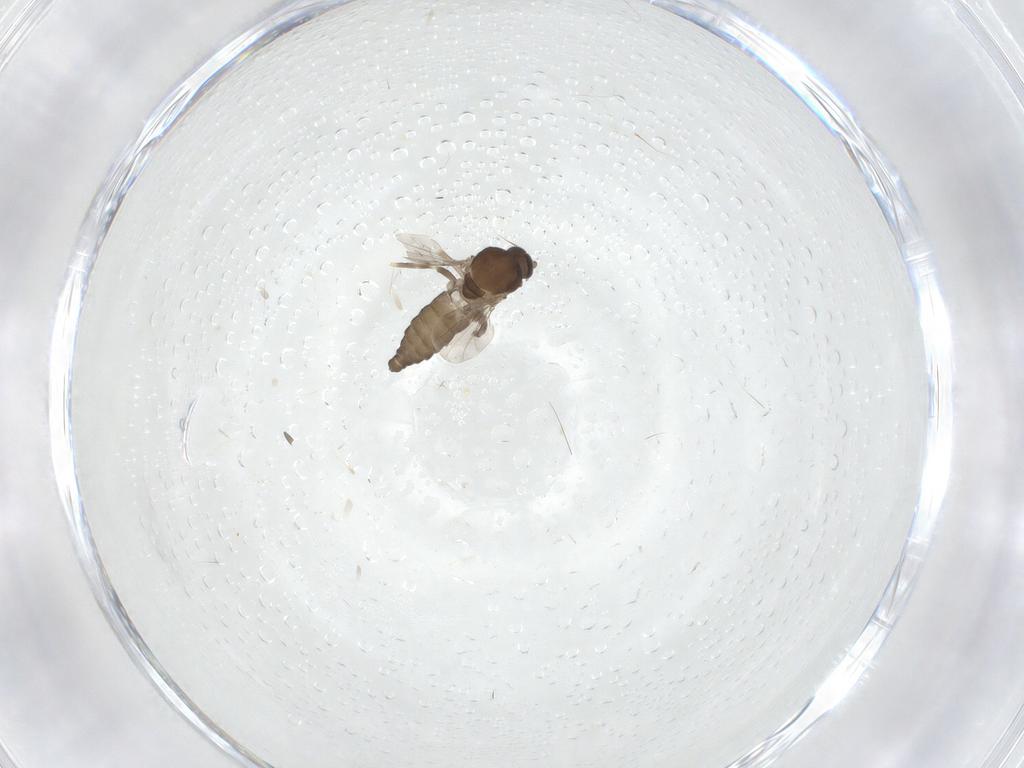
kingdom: Animalia
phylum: Arthropoda
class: Insecta
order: Diptera
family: Ceratopogonidae
